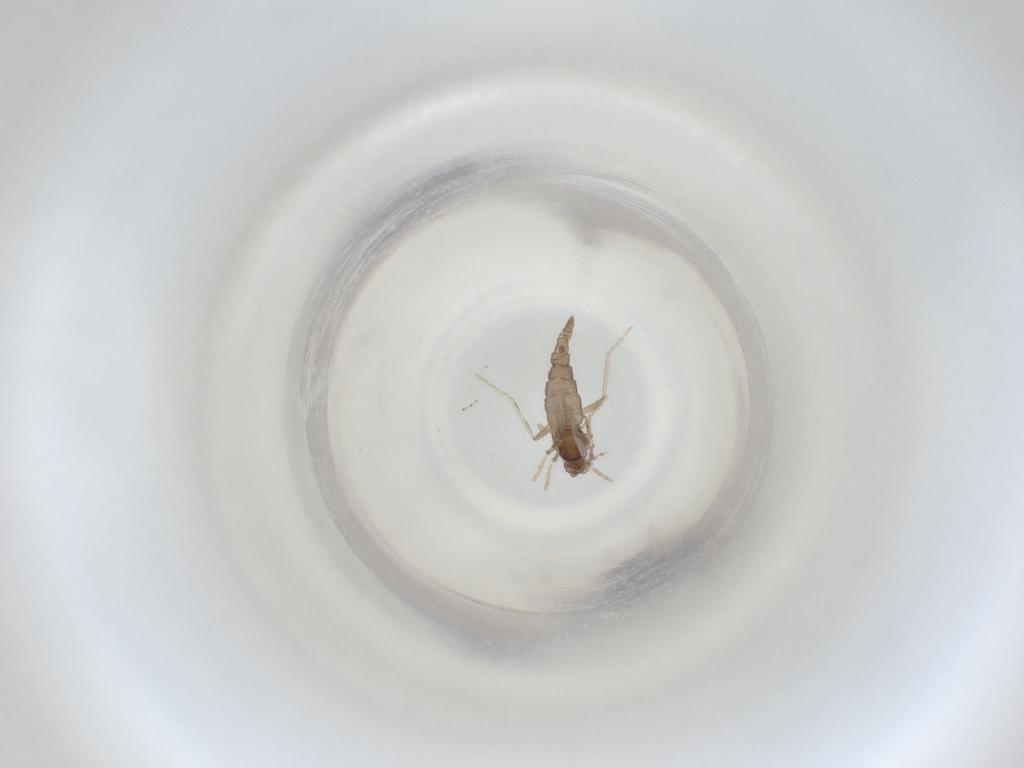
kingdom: Animalia
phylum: Arthropoda
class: Insecta
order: Diptera
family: Cecidomyiidae
